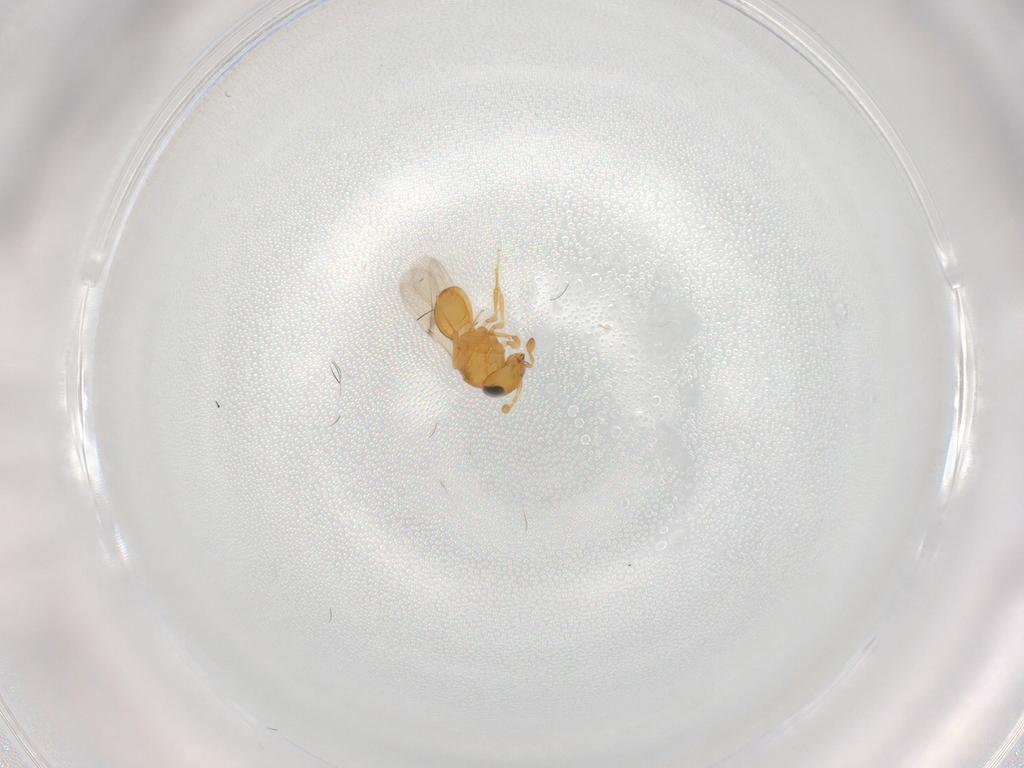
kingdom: Animalia
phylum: Arthropoda
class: Insecta
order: Hymenoptera
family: Scelionidae
